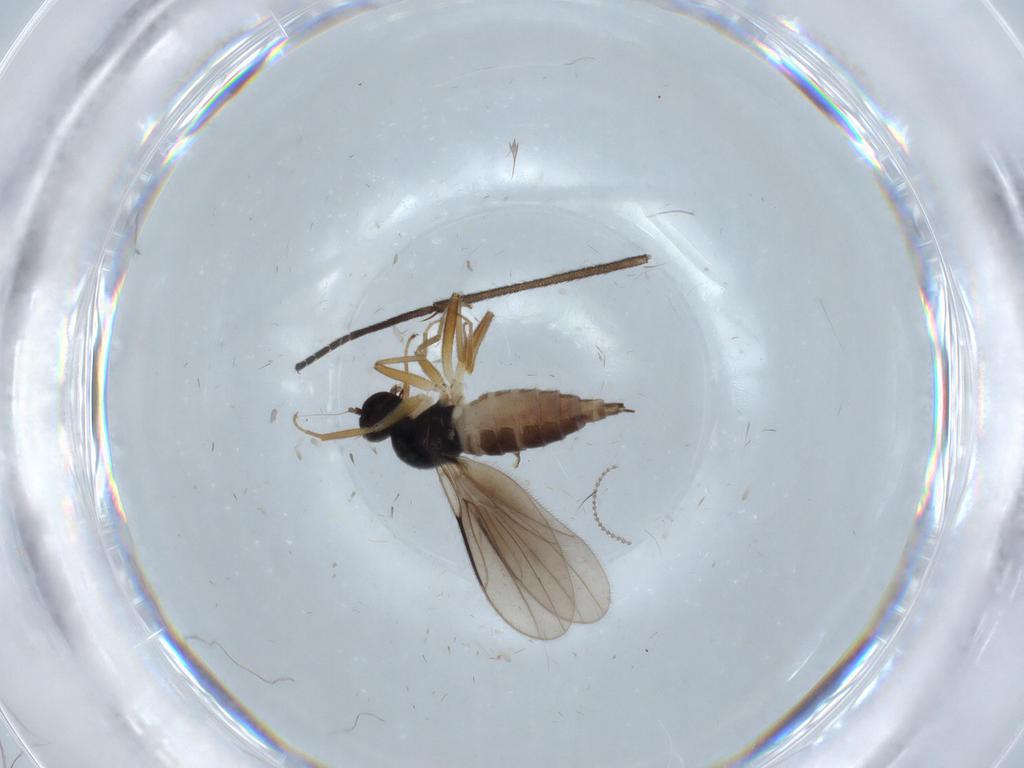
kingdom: Animalia
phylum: Arthropoda
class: Insecta
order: Diptera
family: Hybotidae
